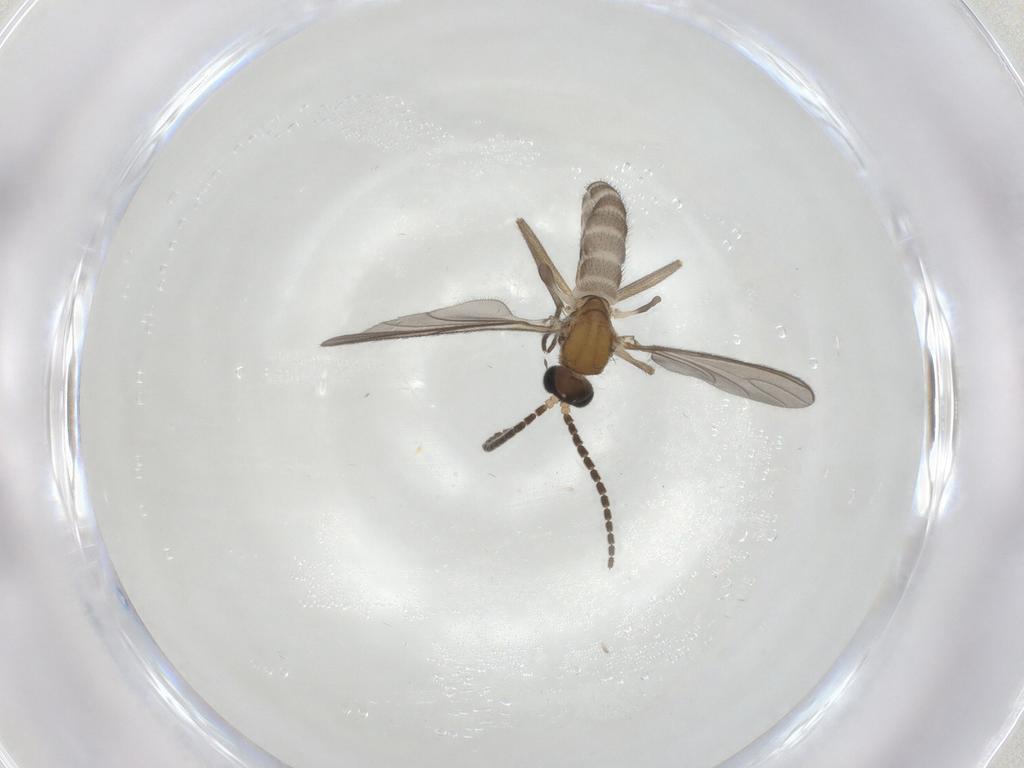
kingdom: Animalia
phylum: Arthropoda
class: Insecta
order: Diptera
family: Sciaridae
